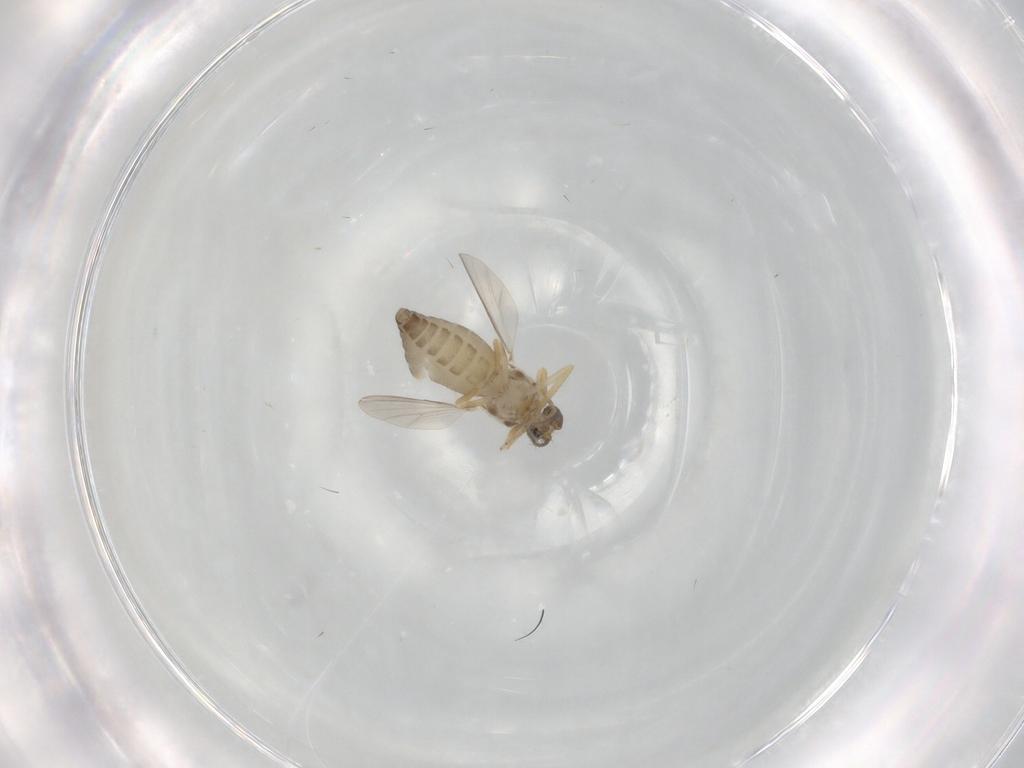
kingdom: Animalia
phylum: Arthropoda
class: Insecta
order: Diptera
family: Ceratopogonidae
